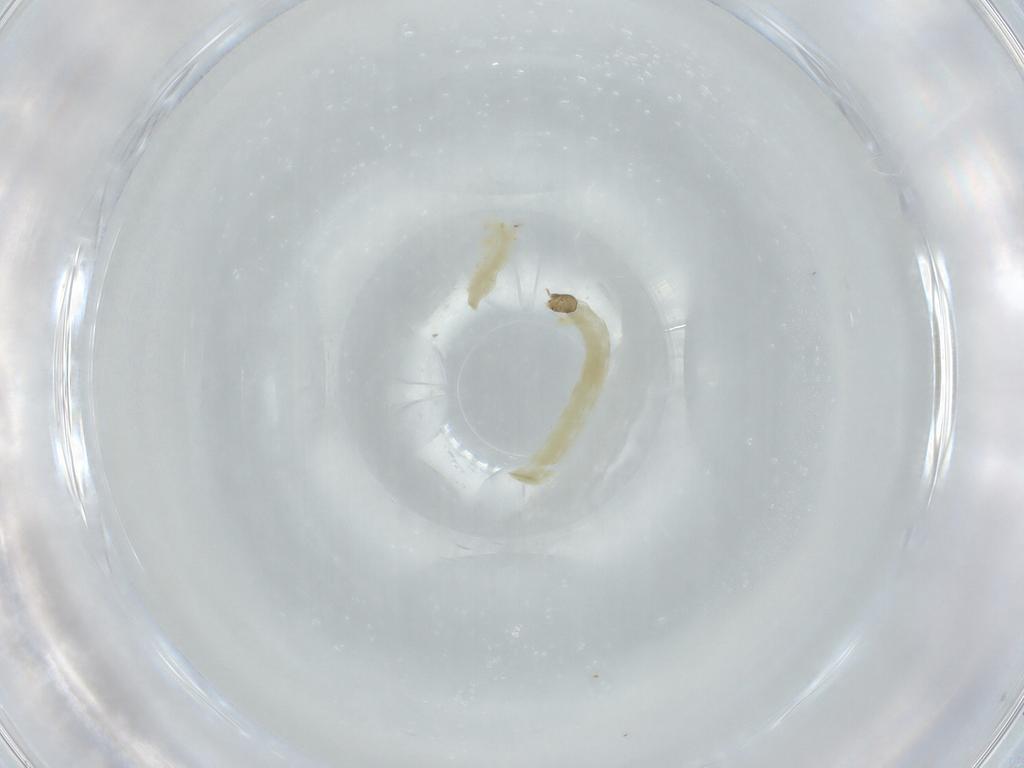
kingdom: Animalia
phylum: Arthropoda
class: Insecta
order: Diptera
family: Chironomidae
